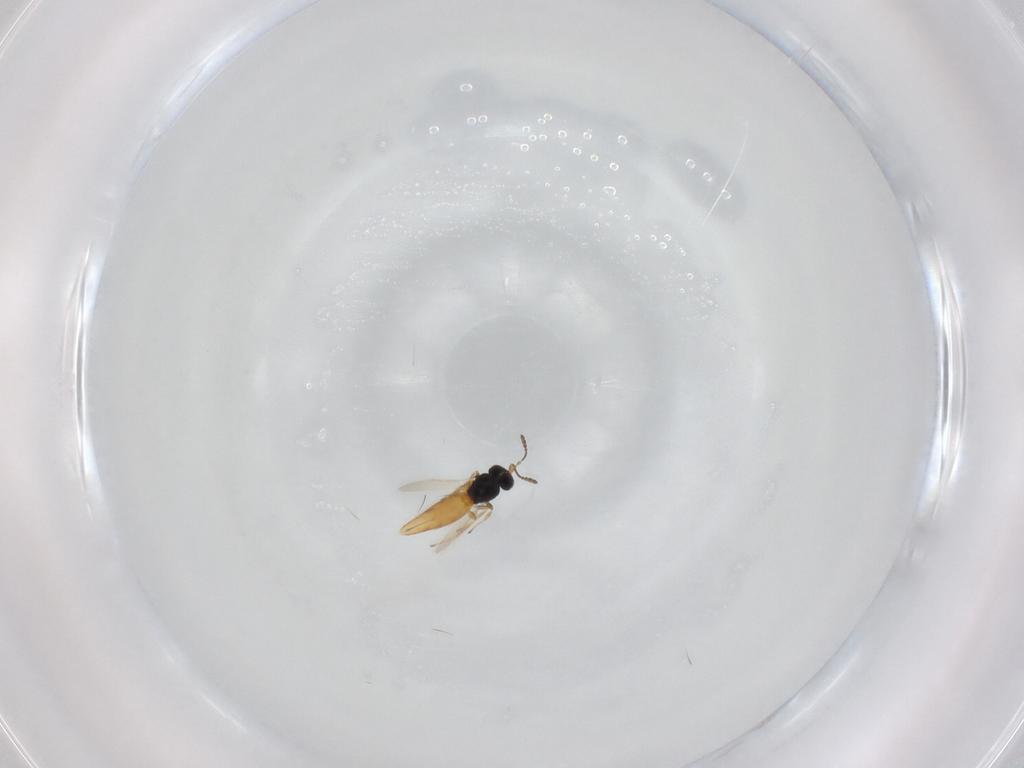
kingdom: Animalia
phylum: Arthropoda
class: Insecta
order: Hymenoptera
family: Scelionidae
